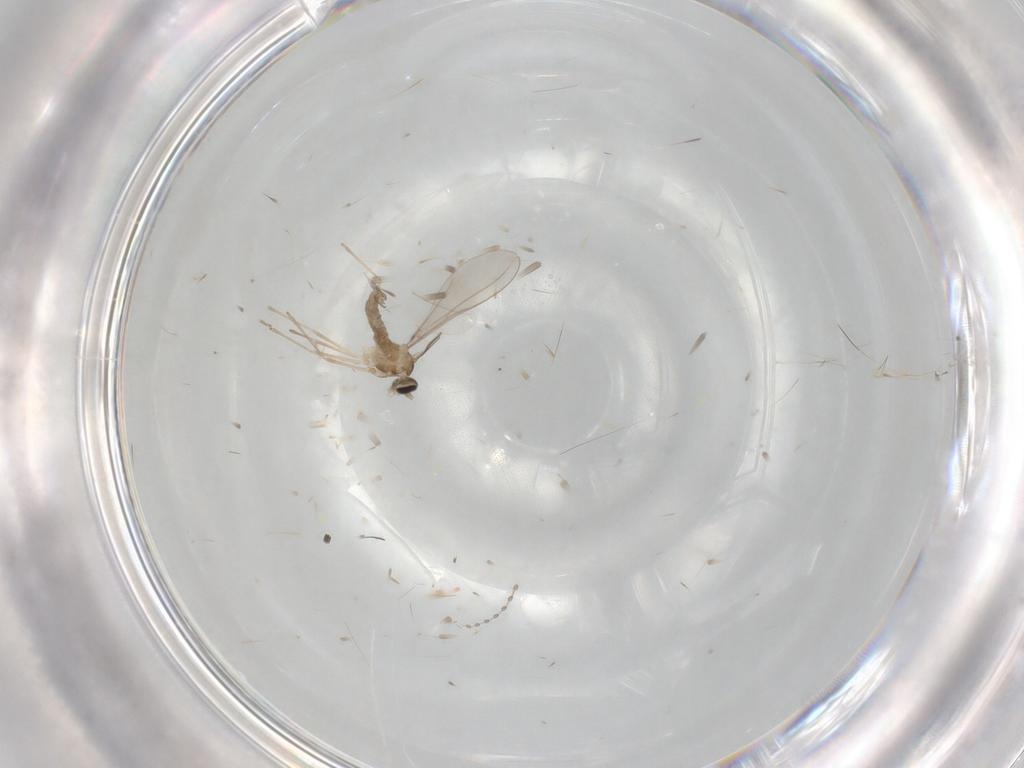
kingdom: Animalia
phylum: Arthropoda
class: Insecta
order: Diptera
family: Cecidomyiidae
